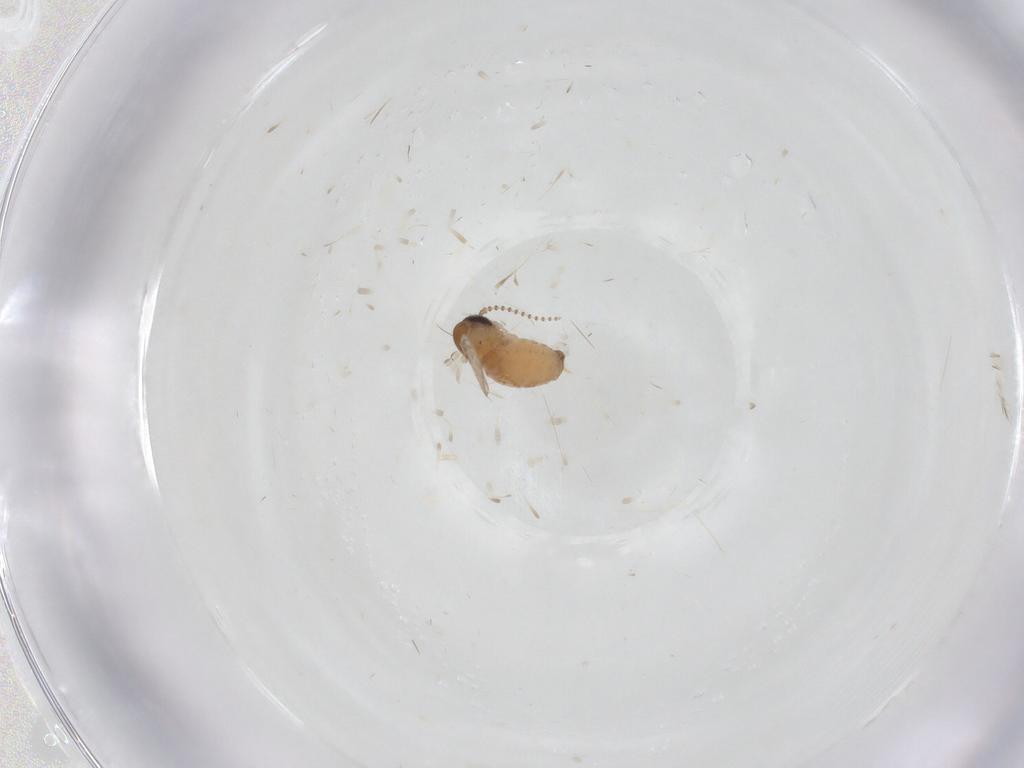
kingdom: Animalia
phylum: Arthropoda
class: Insecta
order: Diptera
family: Psychodidae
